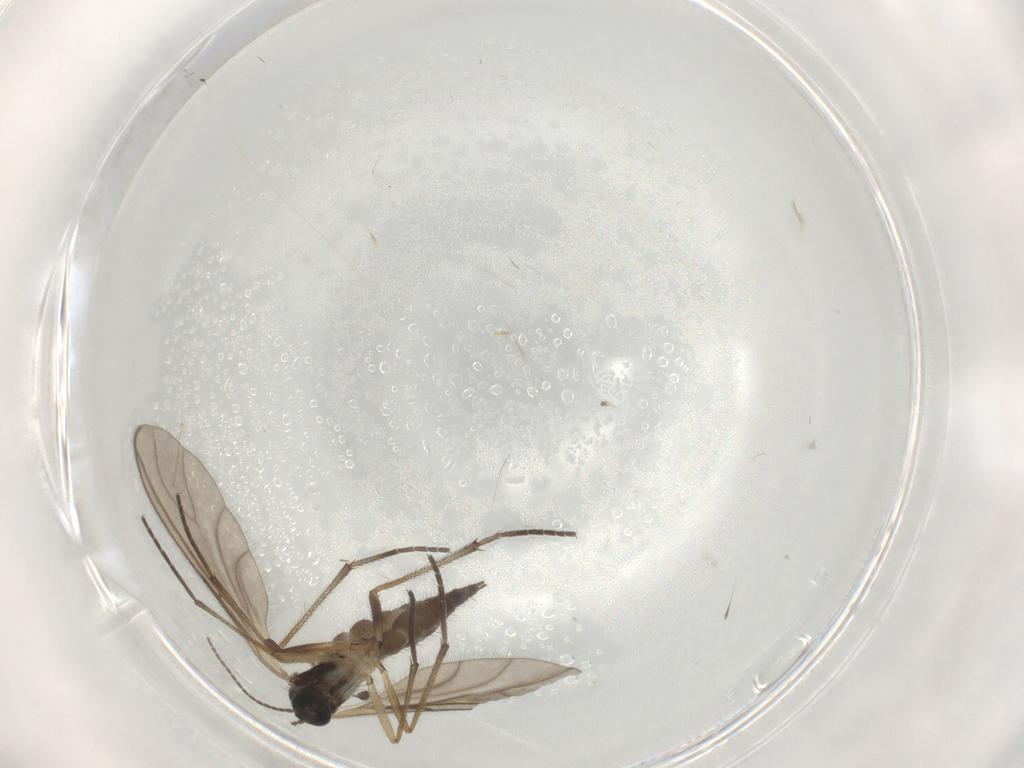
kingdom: Animalia
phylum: Arthropoda
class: Insecta
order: Diptera
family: Sciaridae
